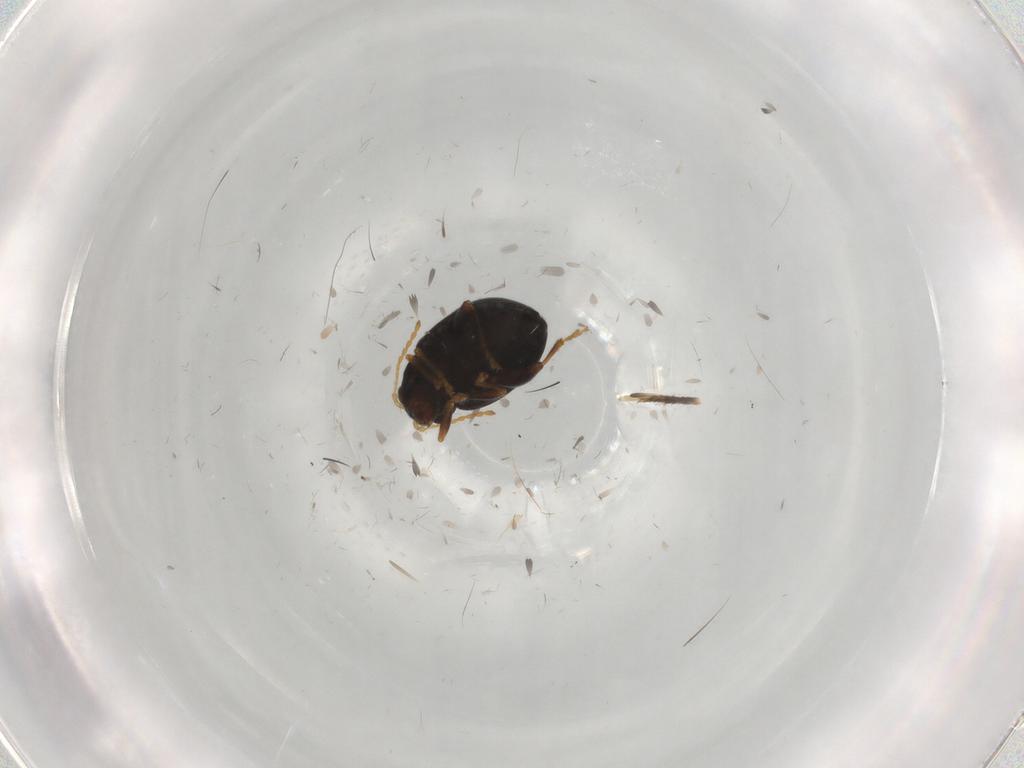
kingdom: Animalia
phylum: Arthropoda
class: Insecta
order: Coleoptera
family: Chrysomelidae
